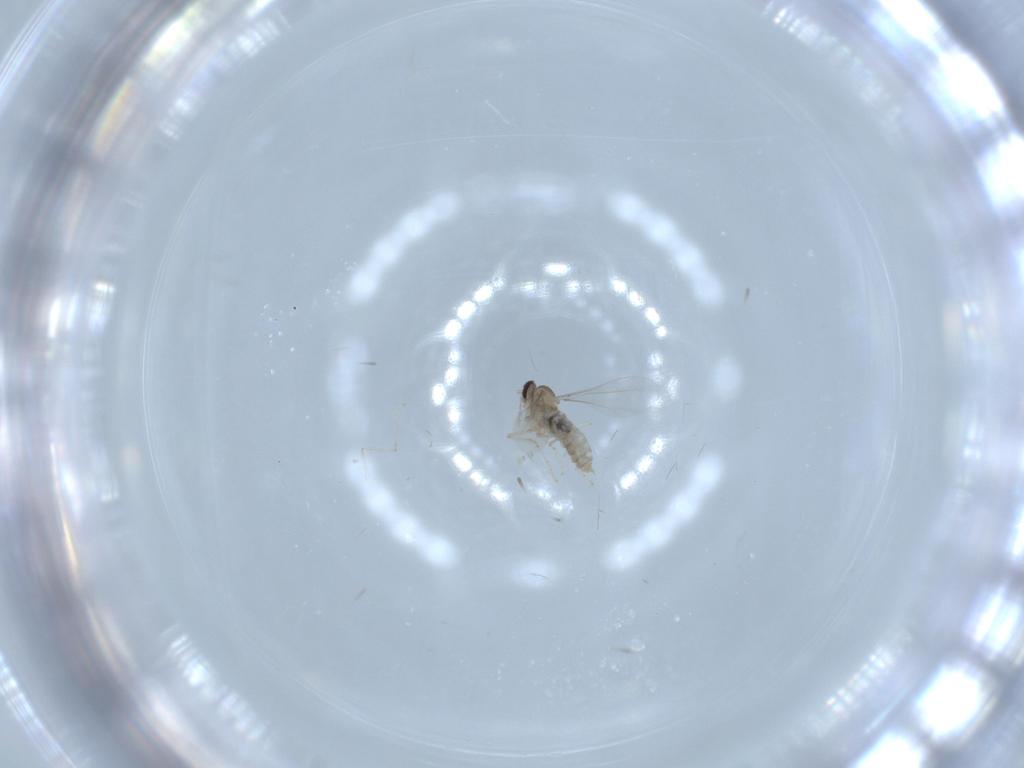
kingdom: Animalia
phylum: Arthropoda
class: Insecta
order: Diptera
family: Cecidomyiidae
